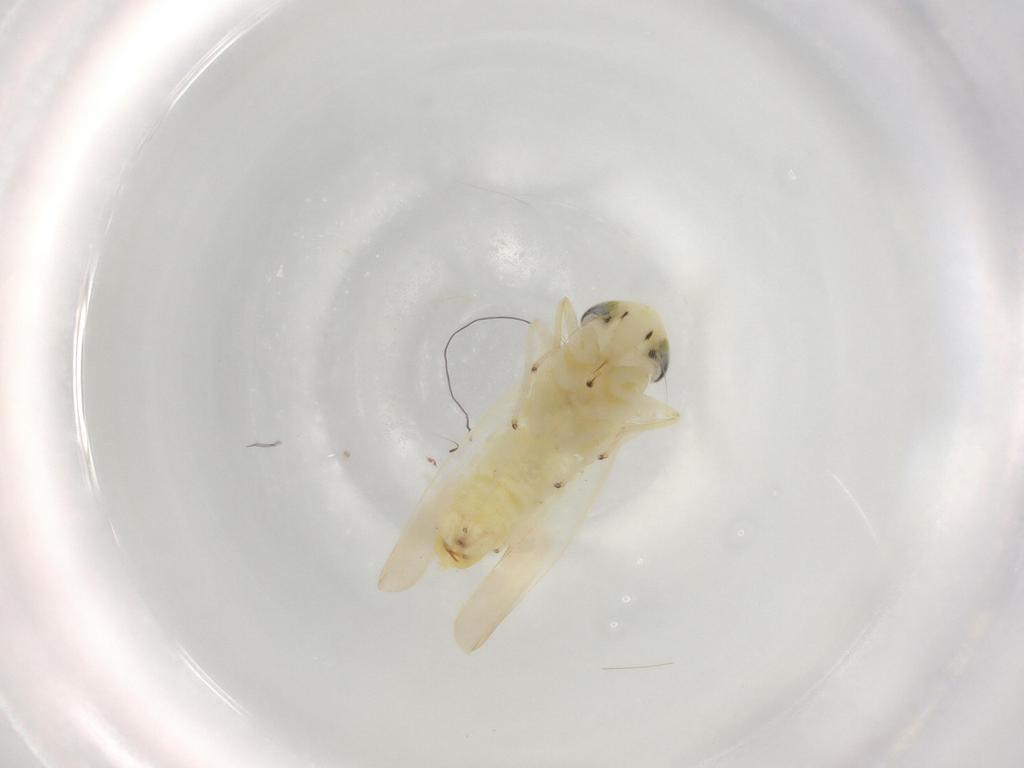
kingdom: Animalia
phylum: Arthropoda
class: Insecta
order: Hemiptera
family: Cicadellidae
